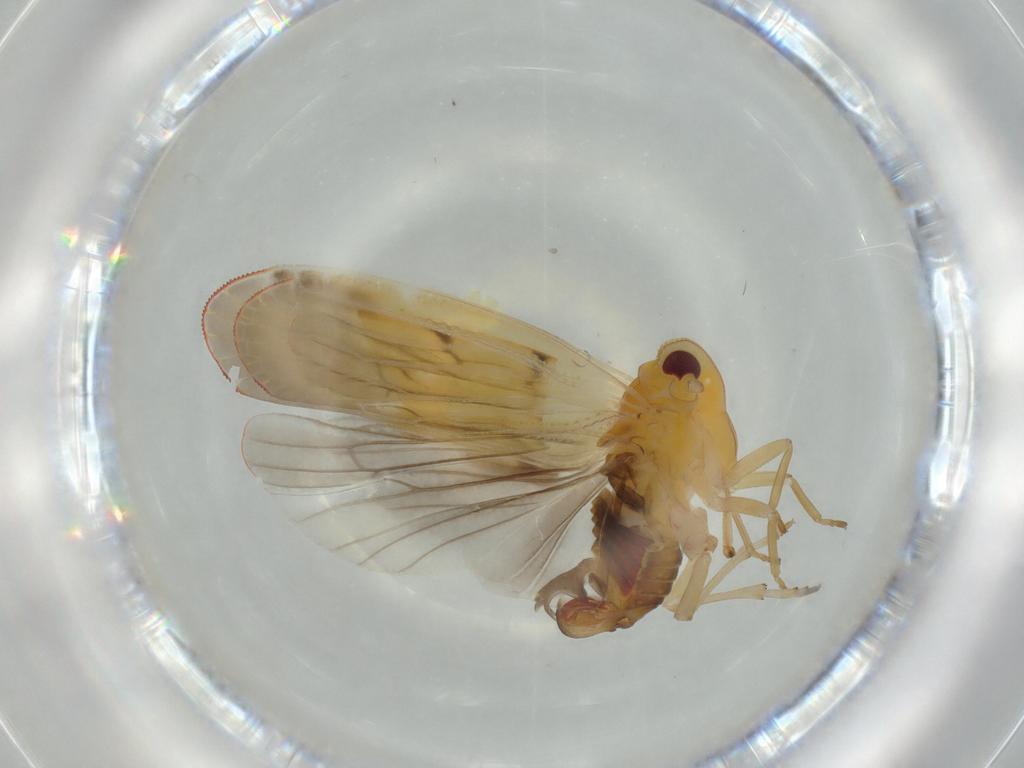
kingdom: Animalia
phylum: Arthropoda
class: Insecta
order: Hemiptera
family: Derbidae
